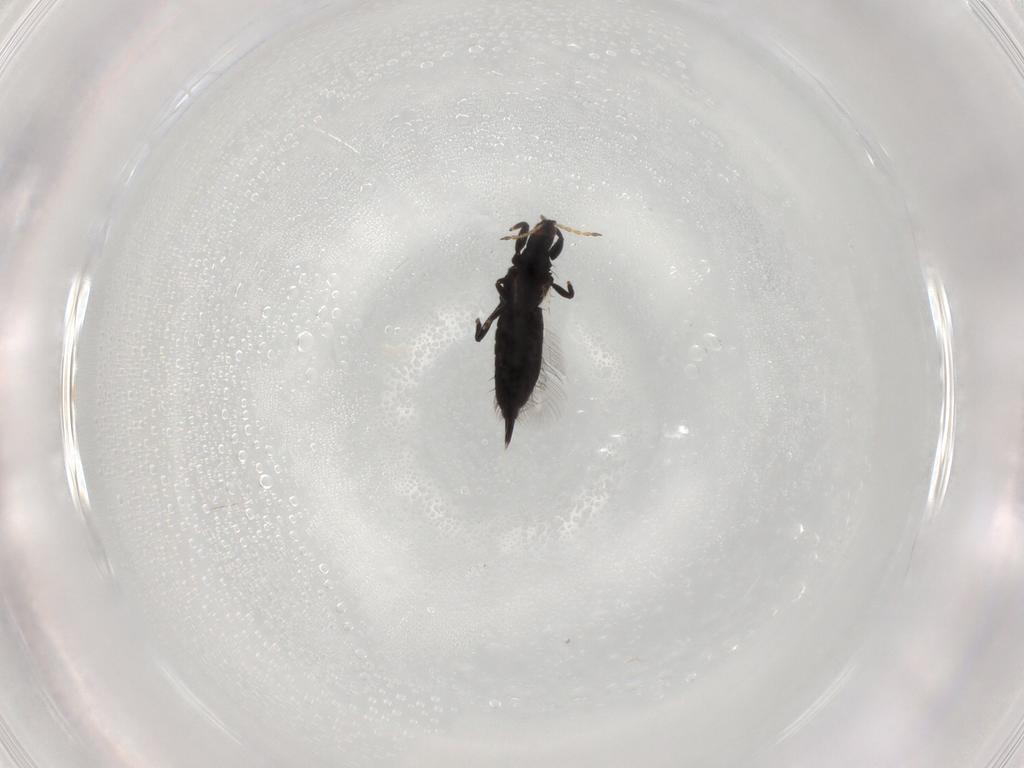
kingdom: Animalia
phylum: Arthropoda
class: Insecta
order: Thysanoptera
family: Phlaeothripidae
